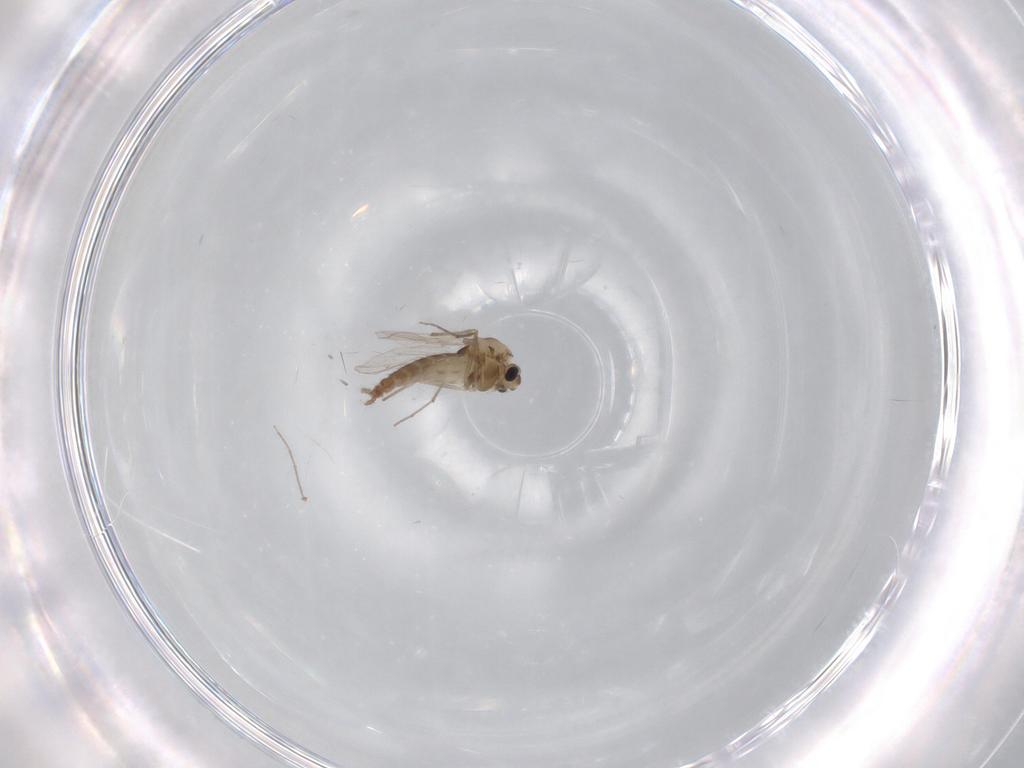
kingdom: Animalia
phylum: Arthropoda
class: Insecta
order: Diptera
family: Chironomidae
